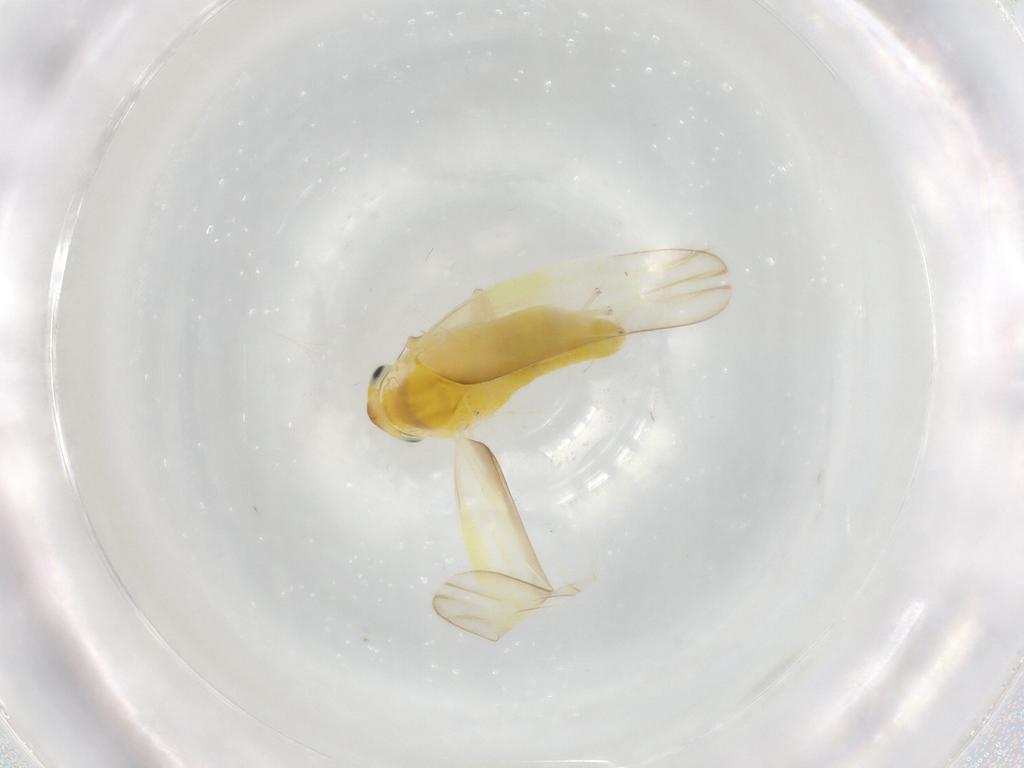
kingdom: Animalia
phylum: Arthropoda
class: Insecta
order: Hemiptera
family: Cicadellidae
